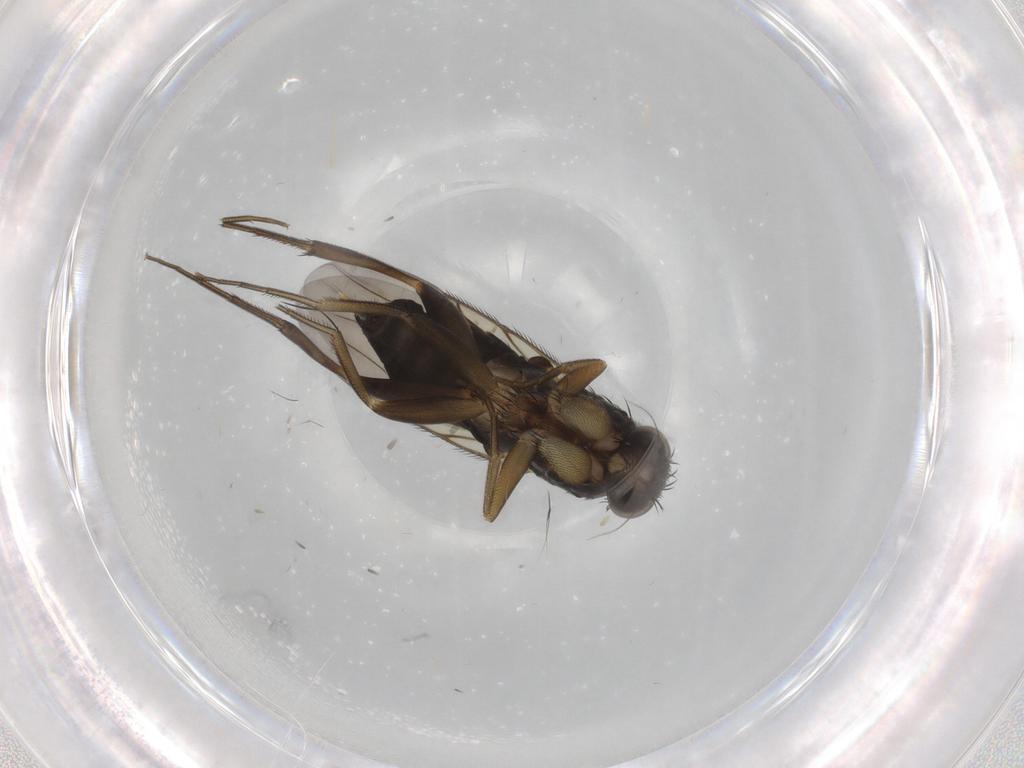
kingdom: Animalia
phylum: Arthropoda
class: Insecta
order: Diptera
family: Phoridae
